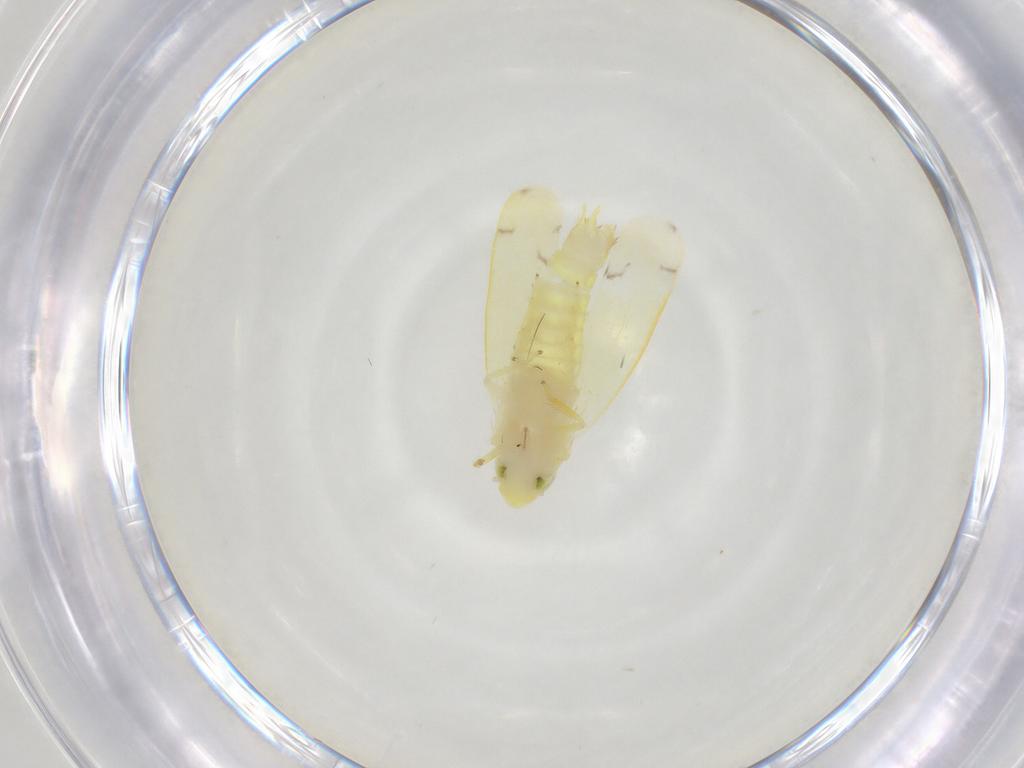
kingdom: Animalia
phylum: Arthropoda
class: Insecta
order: Hemiptera
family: Cicadellidae
